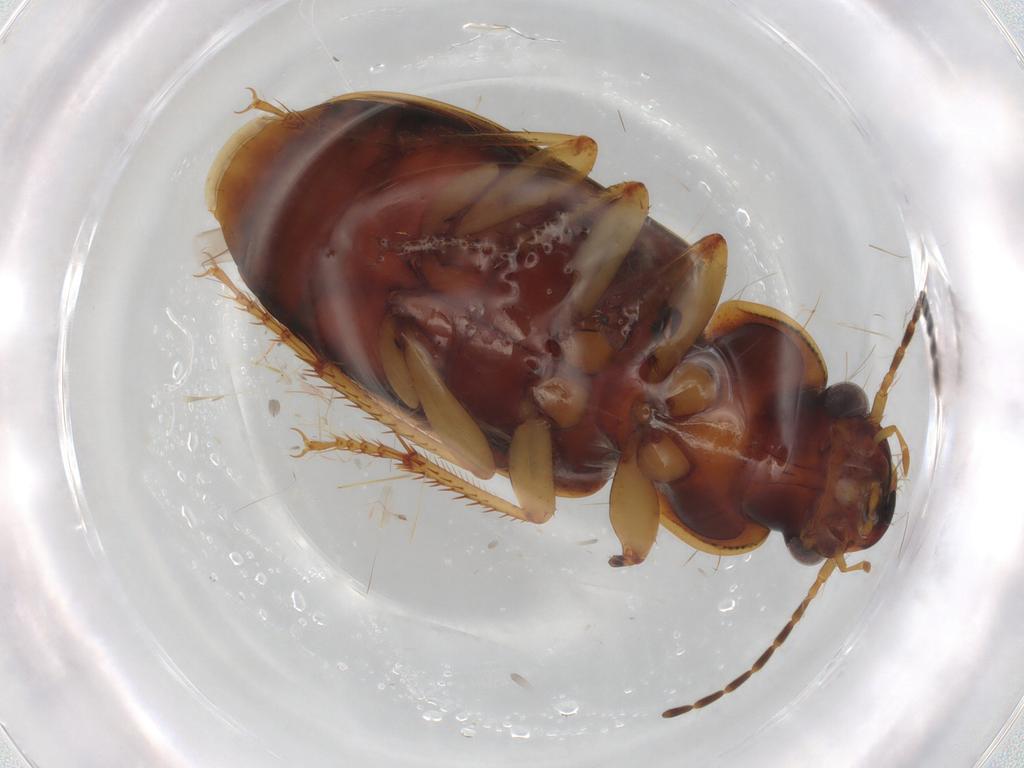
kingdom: Animalia
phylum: Arthropoda
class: Insecta
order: Coleoptera
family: Carabidae
